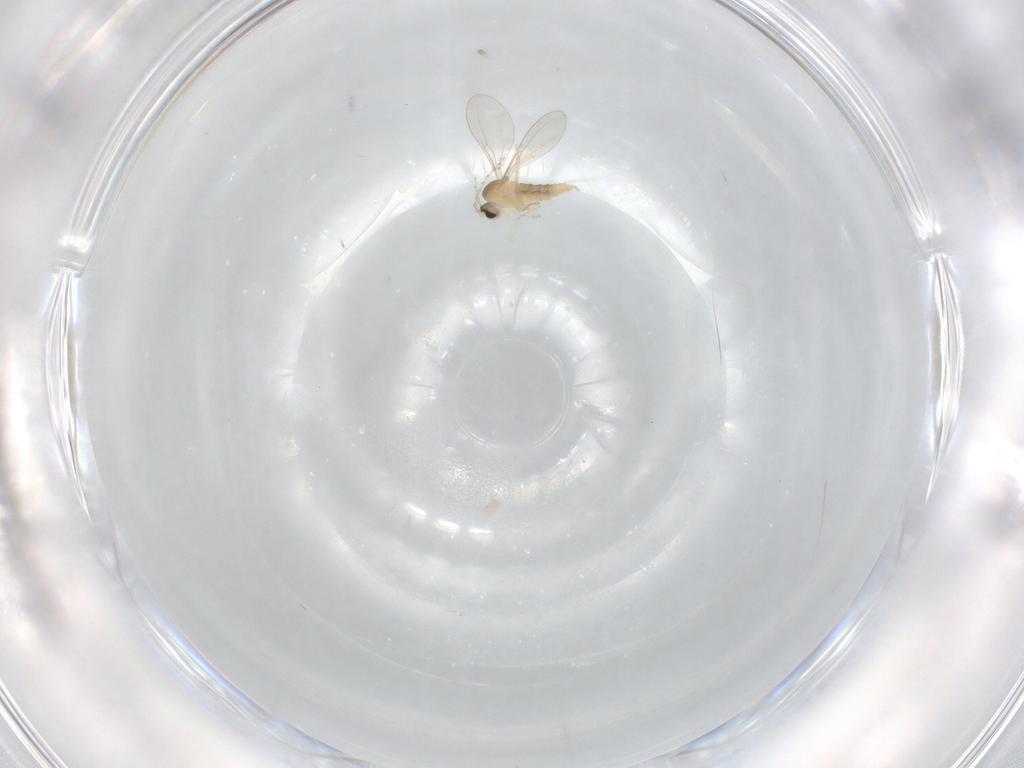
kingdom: Animalia
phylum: Arthropoda
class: Insecta
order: Diptera
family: Cecidomyiidae
